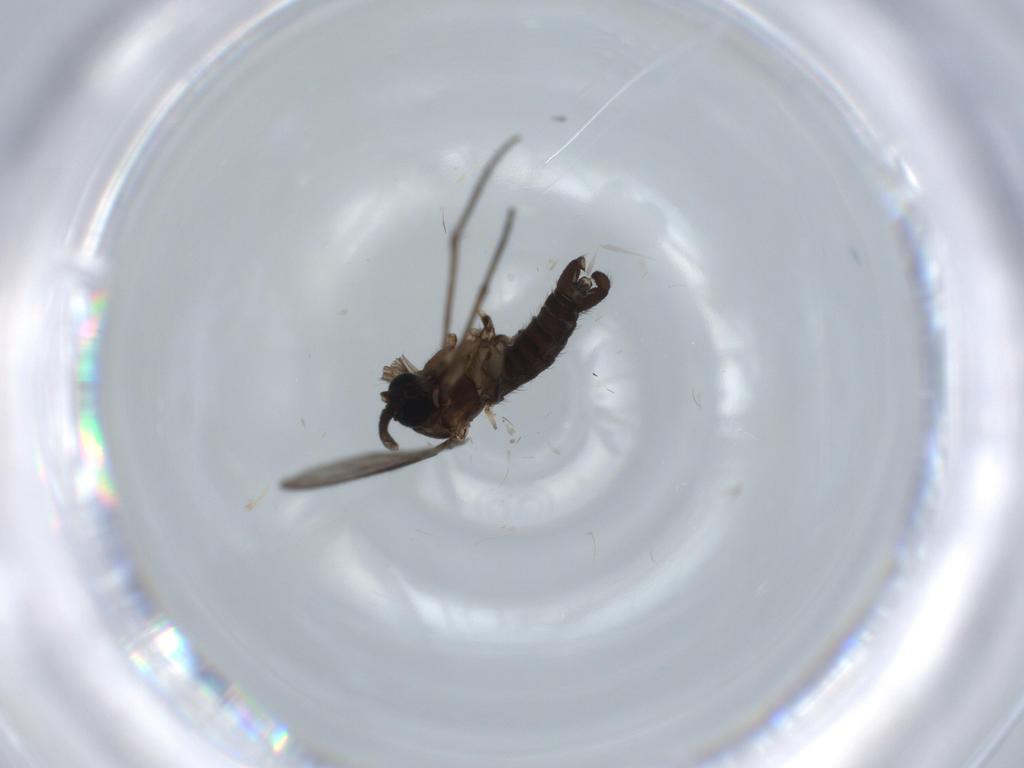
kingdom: Animalia
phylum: Arthropoda
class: Insecta
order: Diptera
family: Sciaridae
